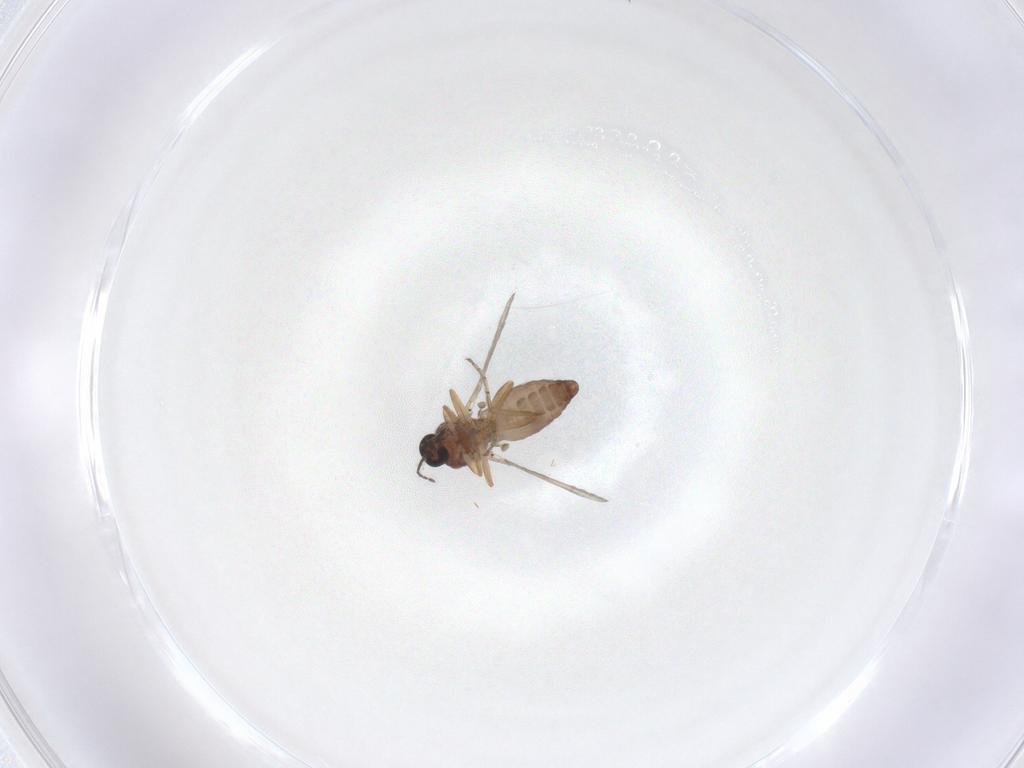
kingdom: Animalia
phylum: Arthropoda
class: Insecta
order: Diptera
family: Ceratopogonidae
